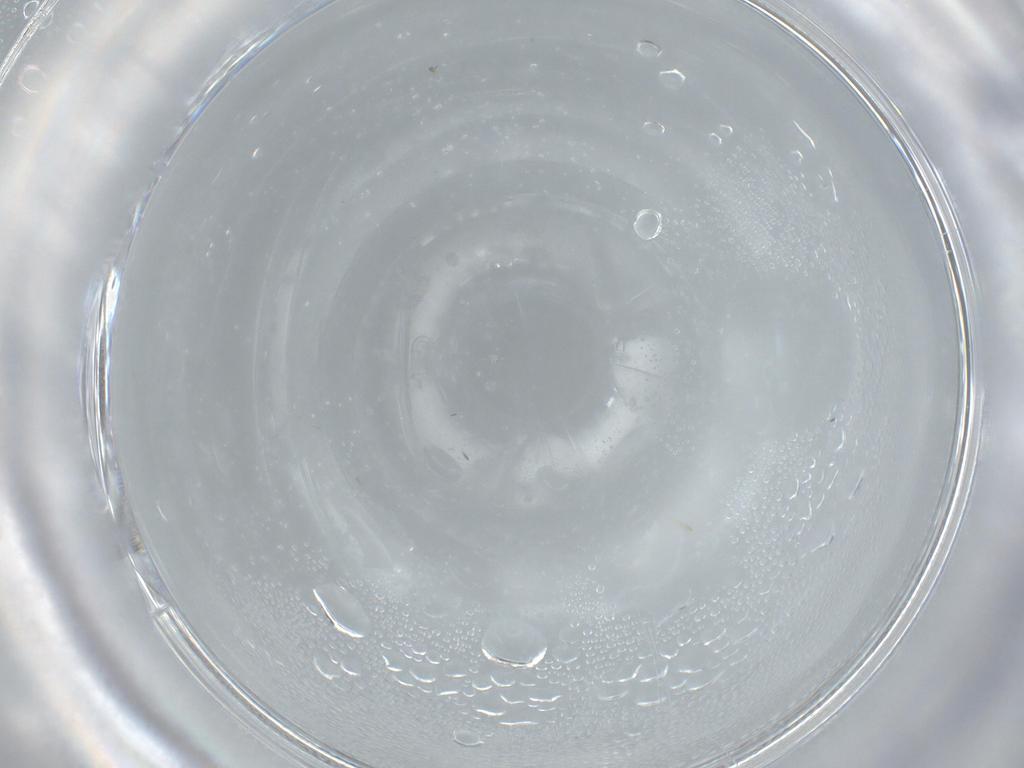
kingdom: Animalia
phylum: Arthropoda
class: Insecta
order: Diptera
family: Cecidomyiidae
